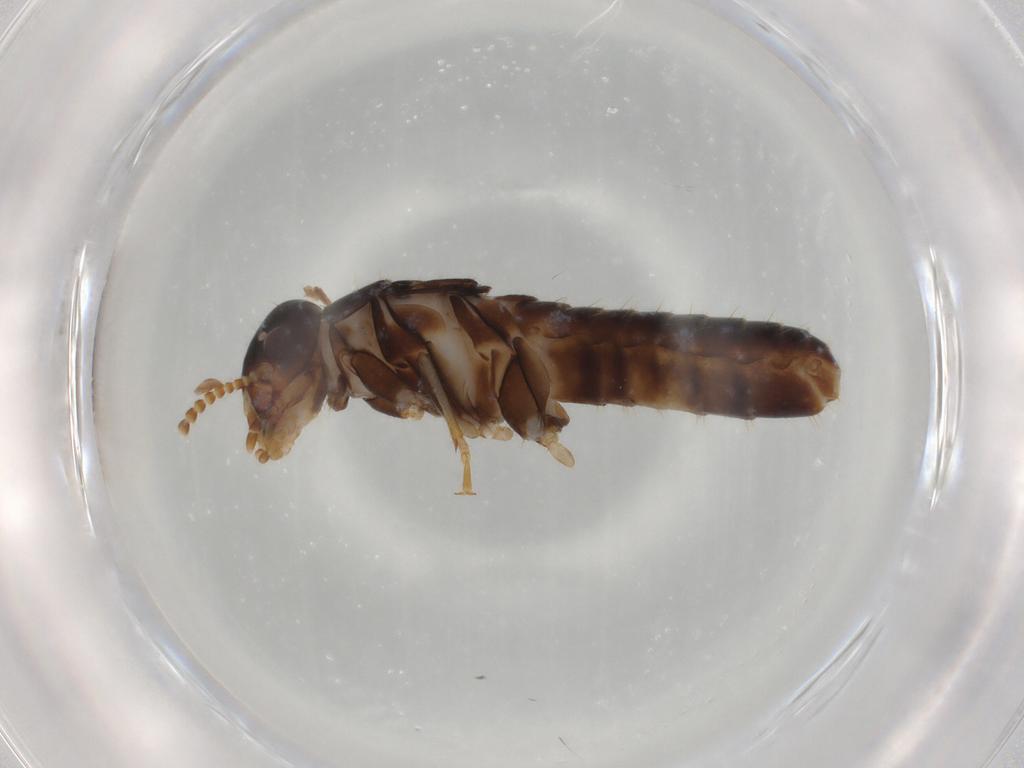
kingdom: Animalia
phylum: Arthropoda
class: Insecta
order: Blattodea
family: Kalotermitidae
